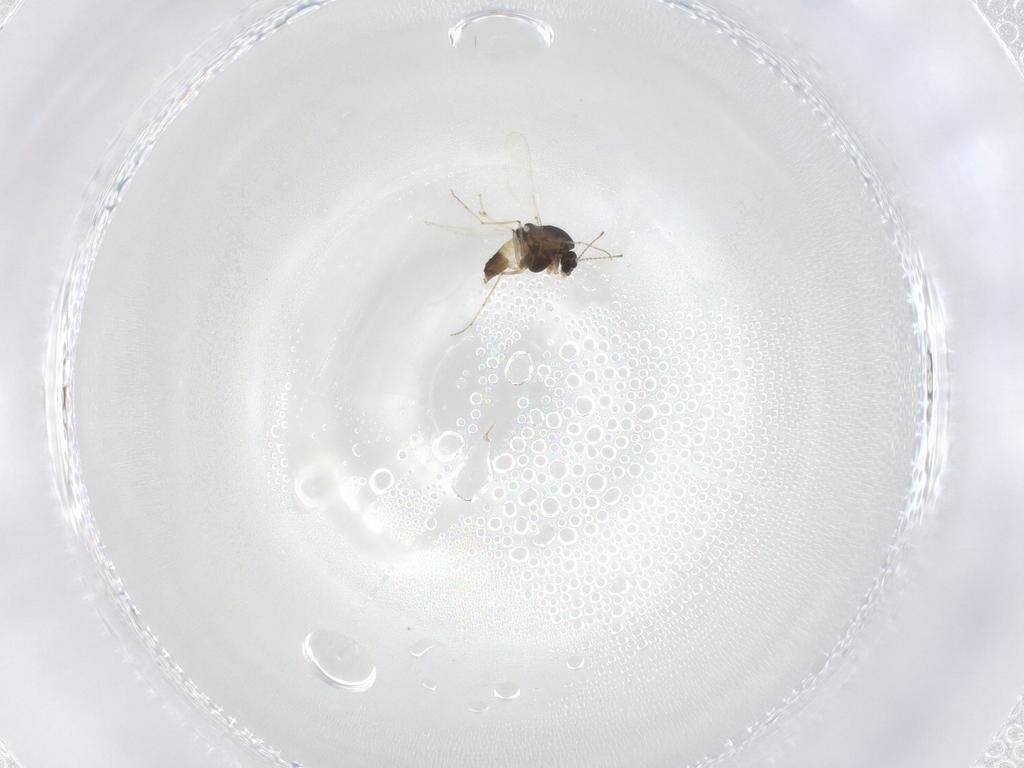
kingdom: Animalia
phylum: Arthropoda
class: Insecta
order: Diptera
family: Chironomidae
